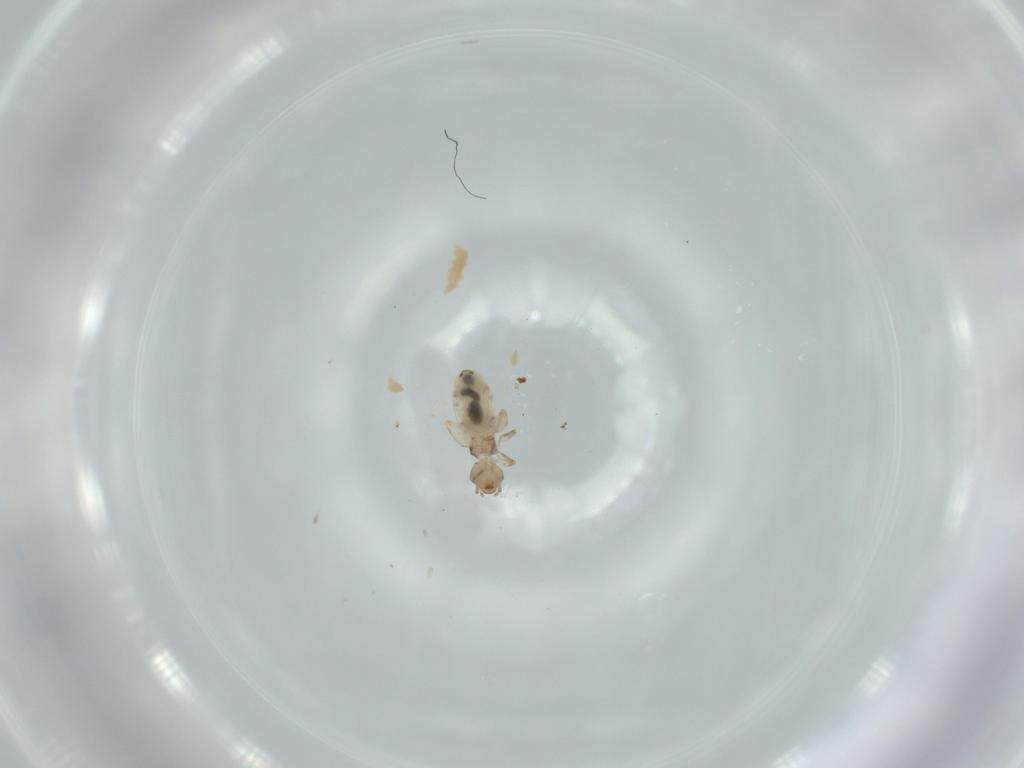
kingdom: Animalia
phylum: Arthropoda
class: Insecta
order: Psocodea
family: Liposcelididae
